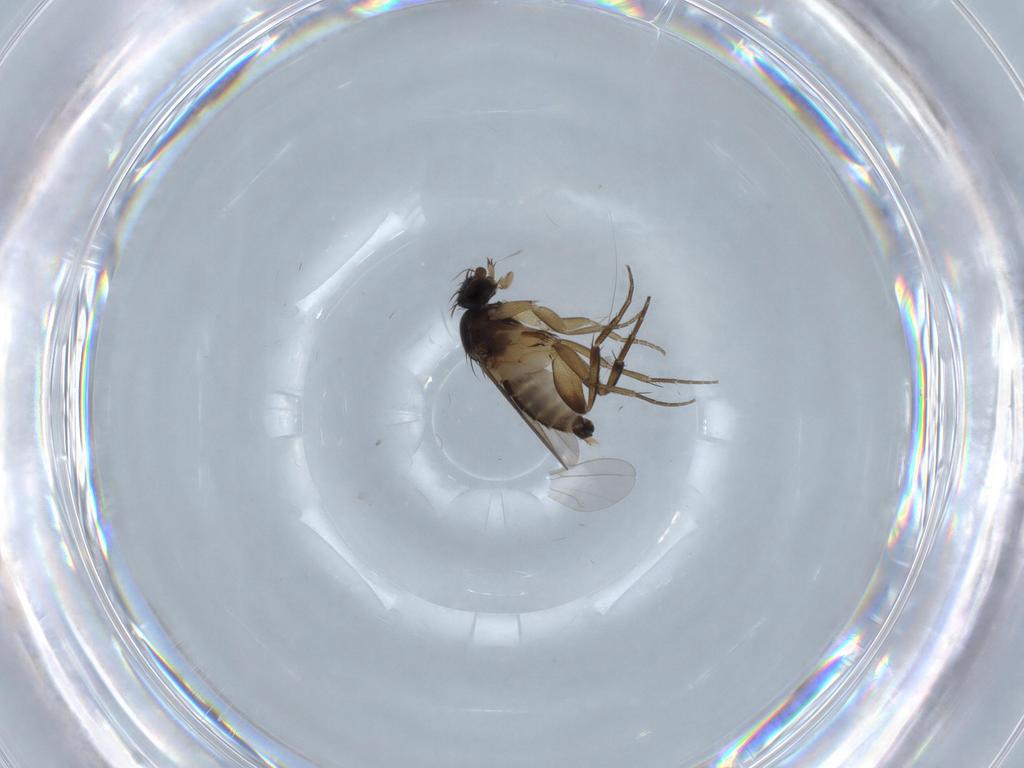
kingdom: Animalia
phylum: Arthropoda
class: Insecta
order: Diptera
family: Phoridae
